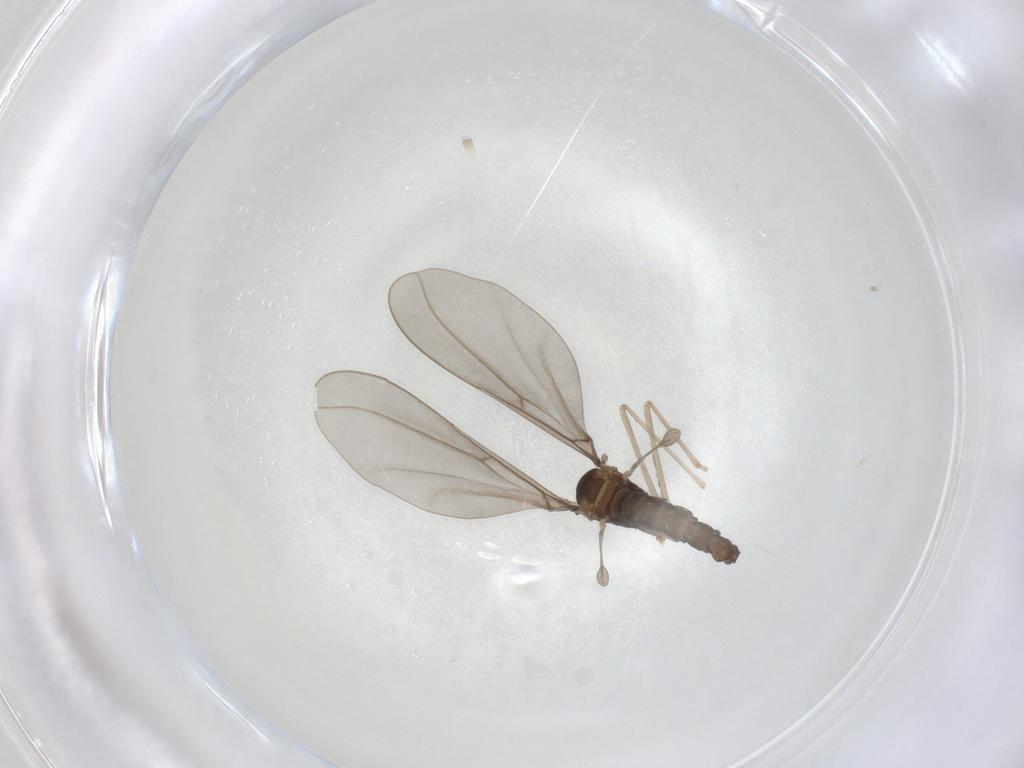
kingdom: Animalia
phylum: Arthropoda
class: Insecta
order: Diptera
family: Cecidomyiidae
